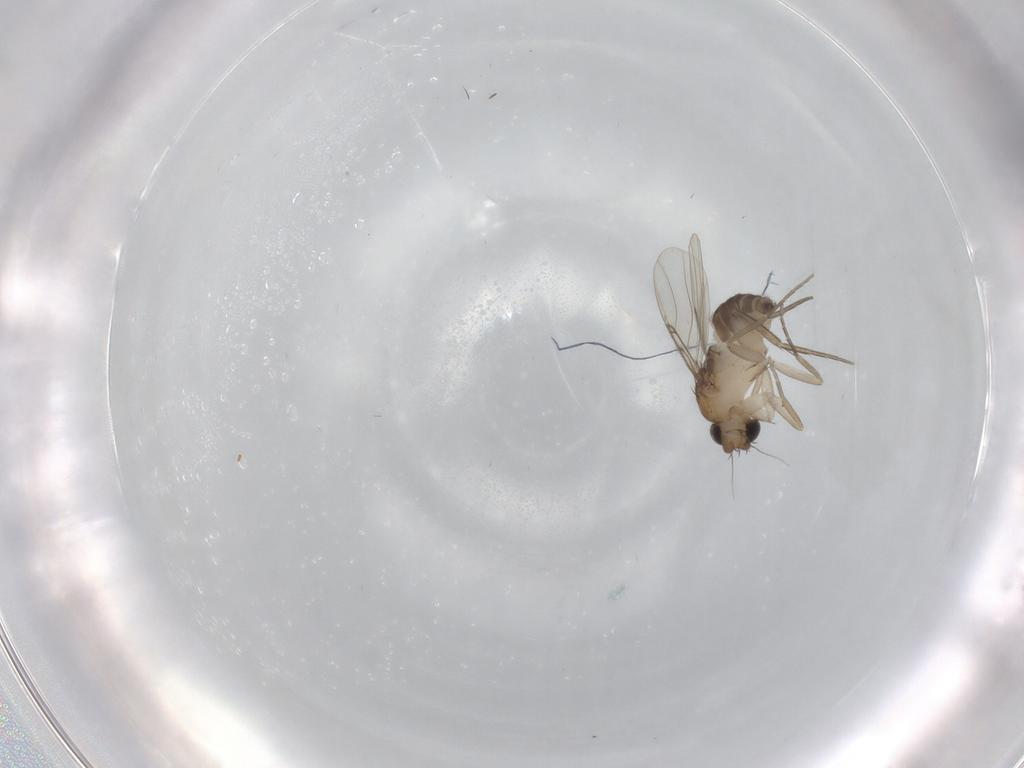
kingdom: Animalia
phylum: Arthropoda
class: Insecta
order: Diptera
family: Phoridae
